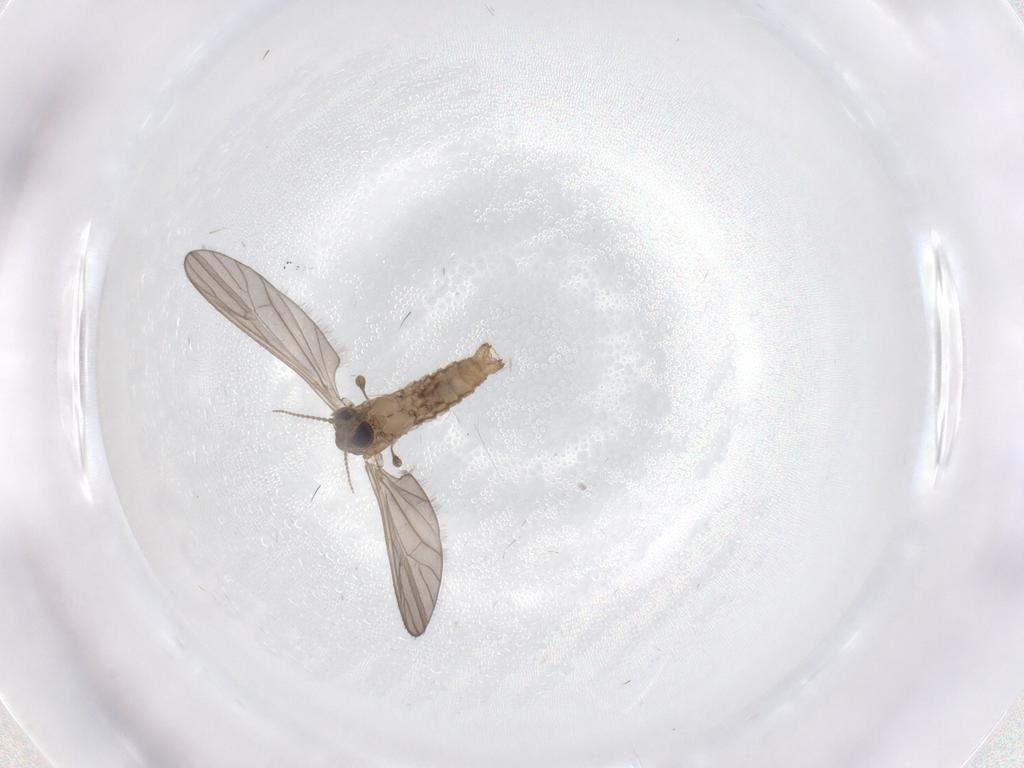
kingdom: Animalia
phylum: Arthropoda
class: Insecta
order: Diptera
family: Limoniidae
